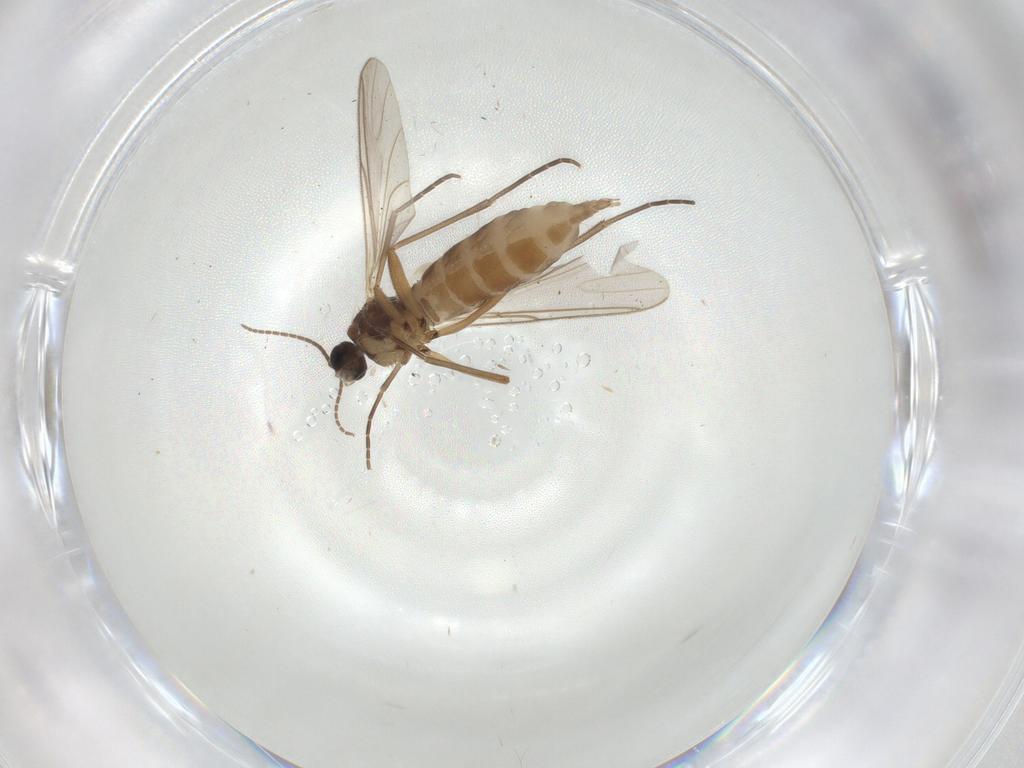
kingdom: Animalia
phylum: Arthropoda
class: Insecta
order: Diptera
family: Sciaridae
